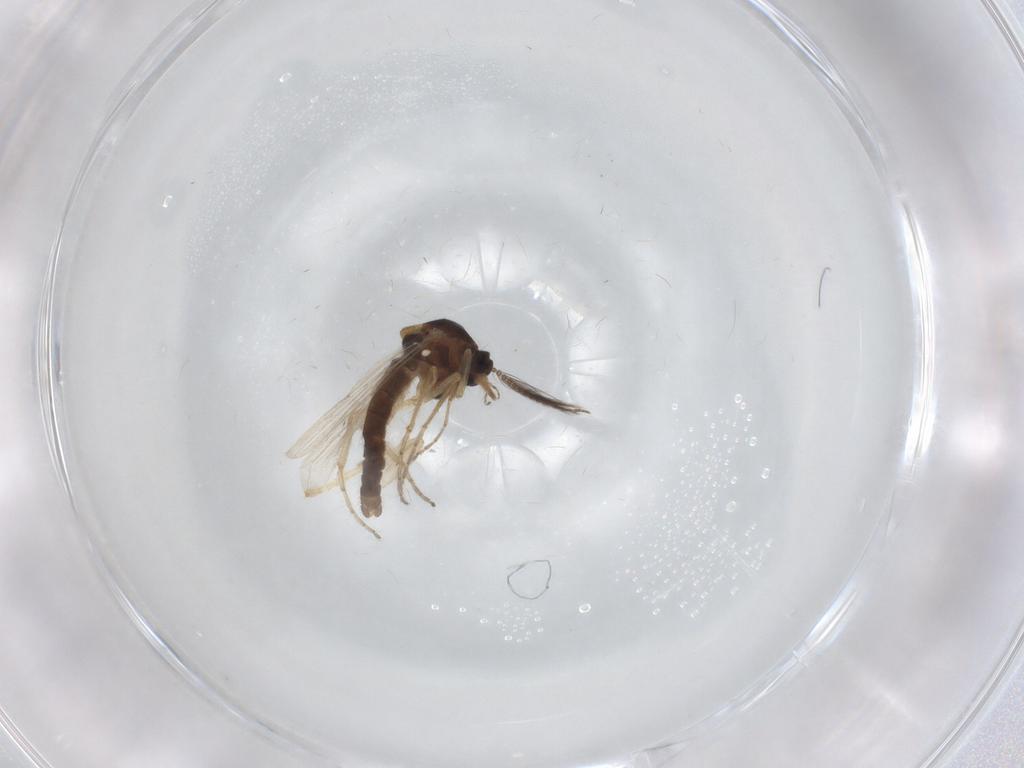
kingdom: Animalia
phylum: Arthropoda
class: Insecta
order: Diptera
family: Ceratopogonidae
